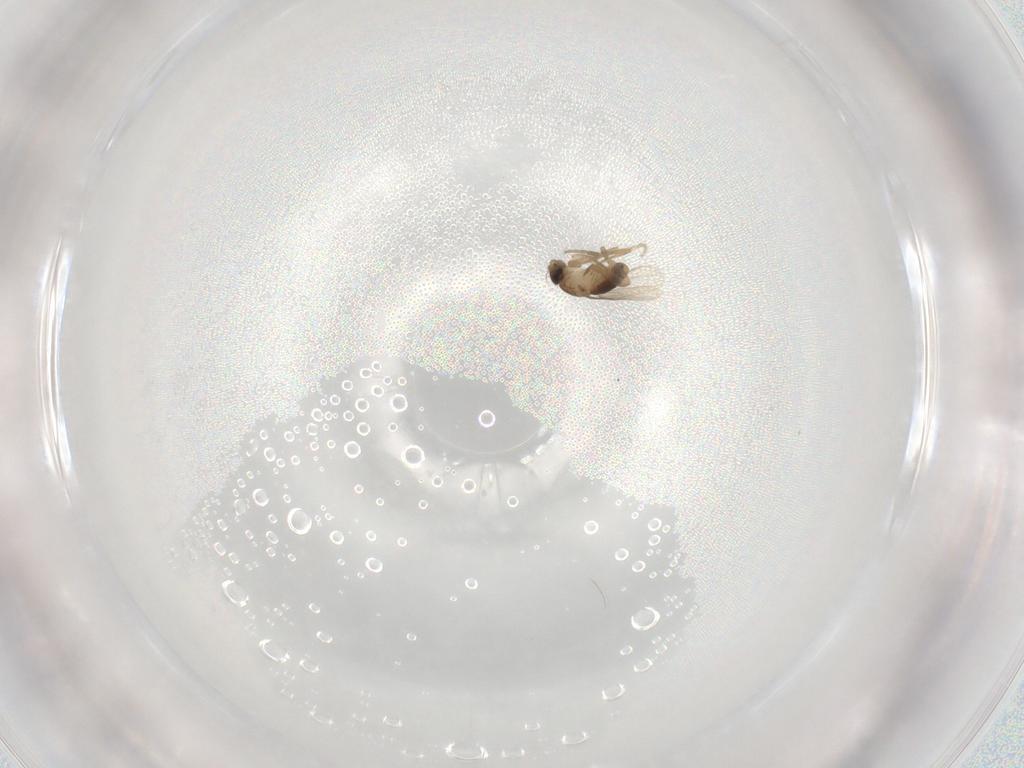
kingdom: Animalia
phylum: Arthropoda
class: Insecta
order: Diptera
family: Phoridae
